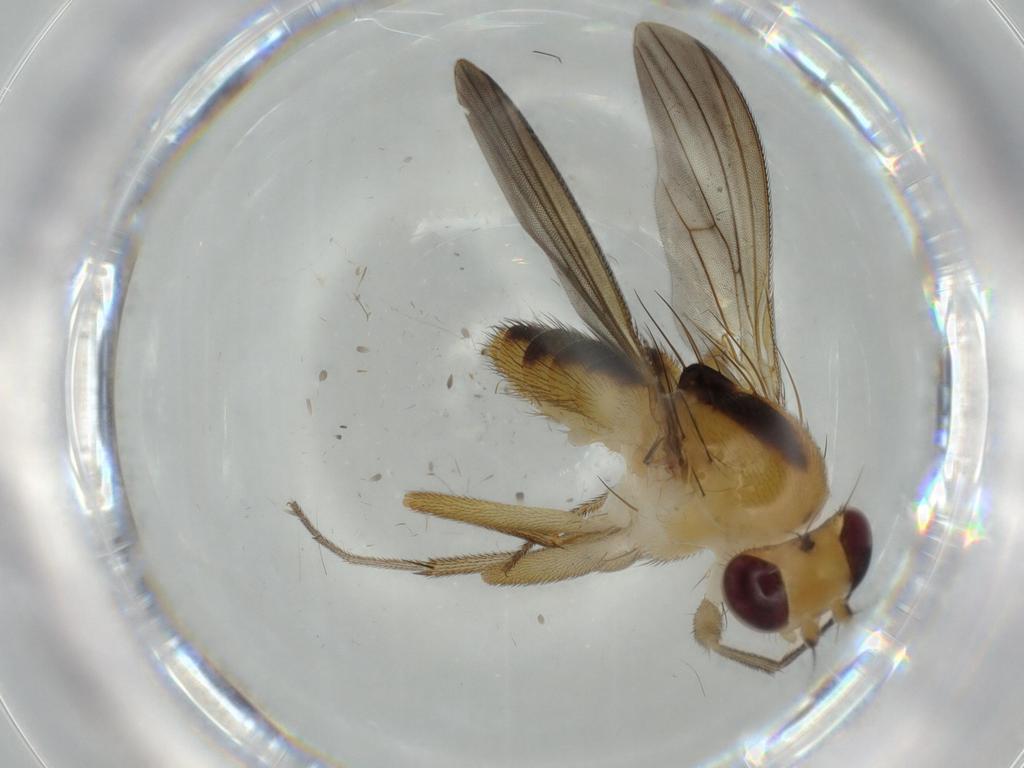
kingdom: Animalia
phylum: Arthropoda
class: Insecta
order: Diptera
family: Clusiidae
